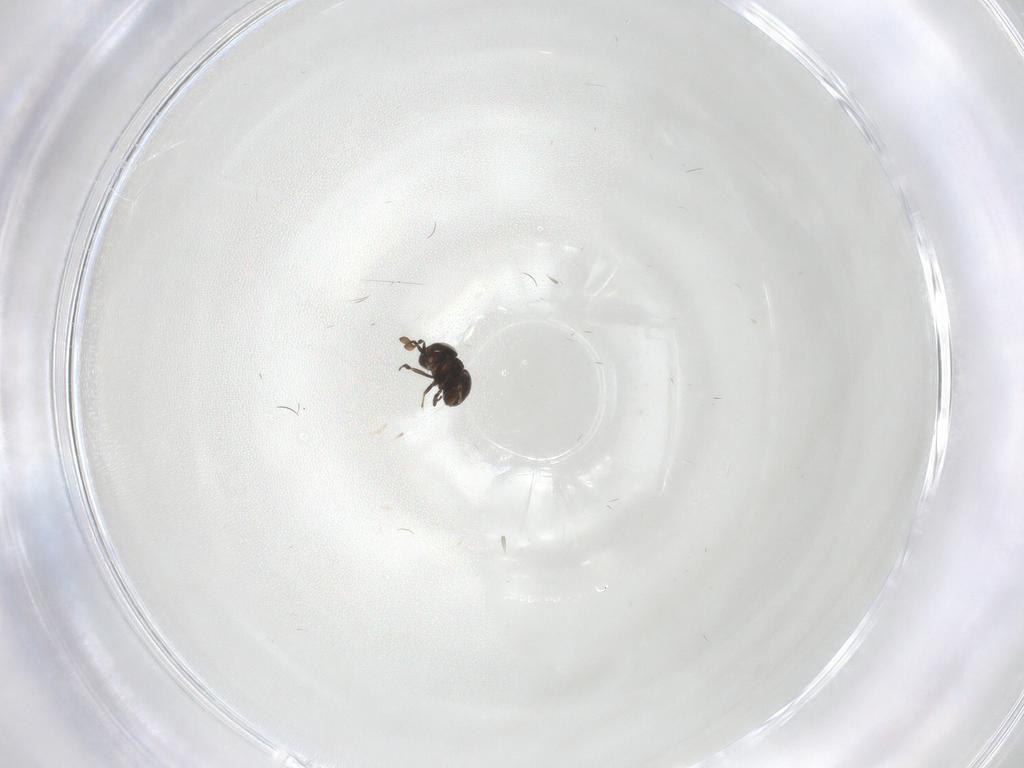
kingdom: Animalia
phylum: Arthropoda
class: Insecta
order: Hymenoptera
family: Scelionidae
